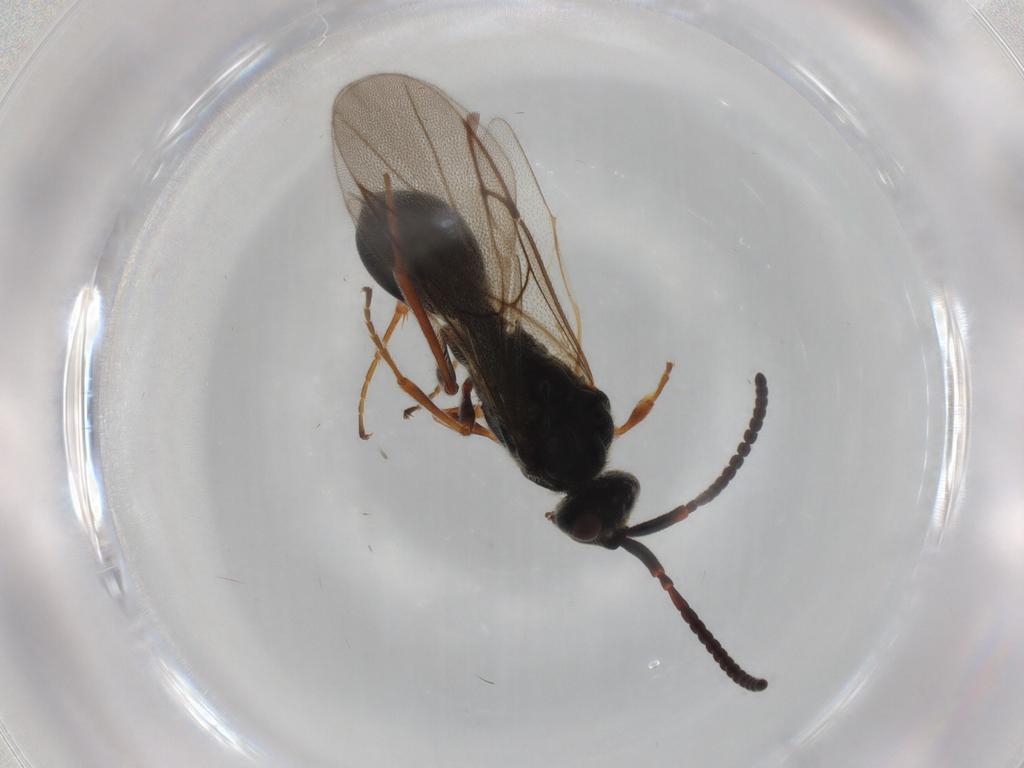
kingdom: Animalia
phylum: Arthropoda
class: Insecta
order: Hymenoptera
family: Diapriidae
